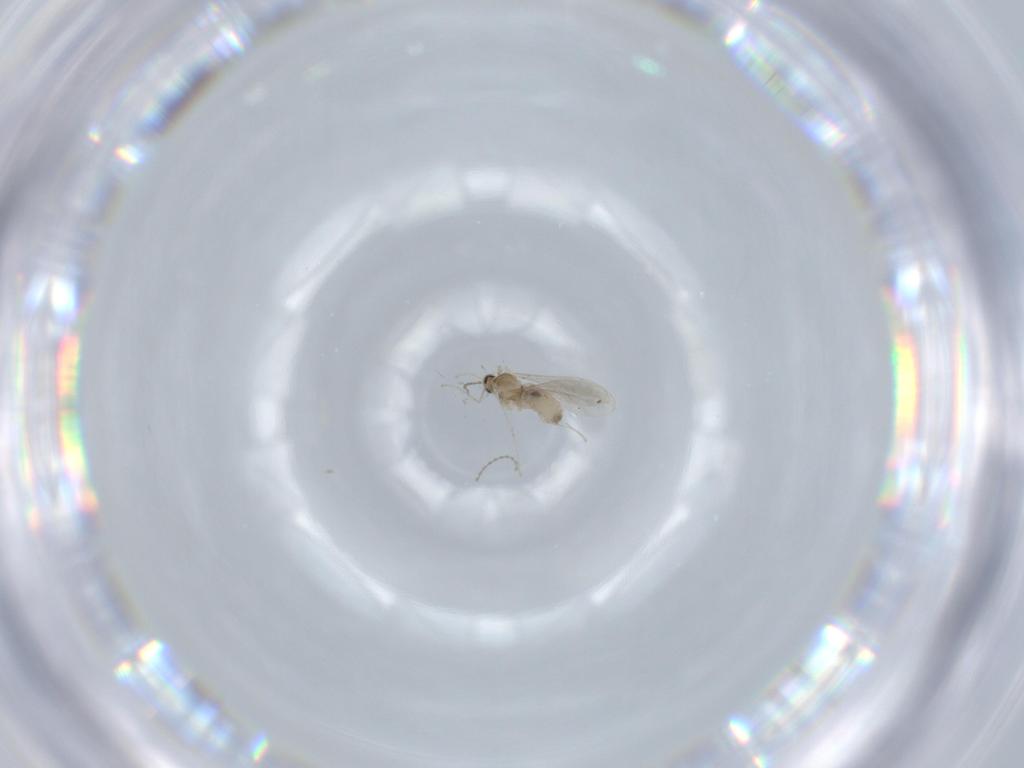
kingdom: Animalia
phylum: Arthropoda
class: Insecta
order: Diptera
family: Cecidomyiidae
